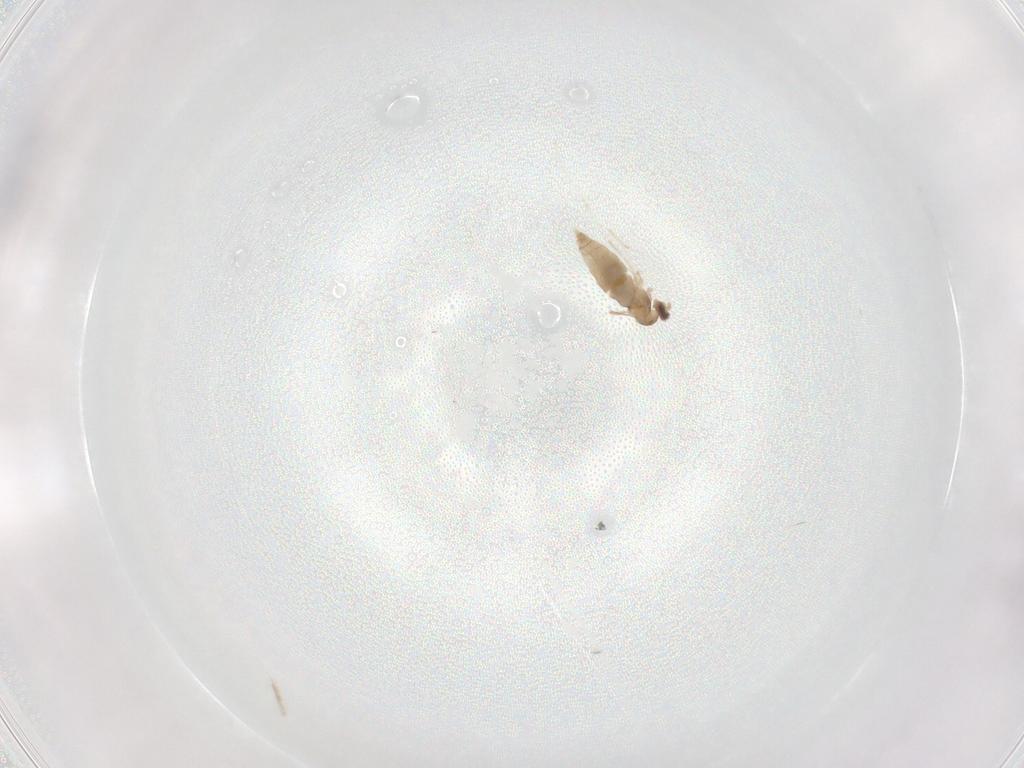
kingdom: Animalia
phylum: Arthropoda
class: Insecta
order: Diptera
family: Cecidomyiidae
